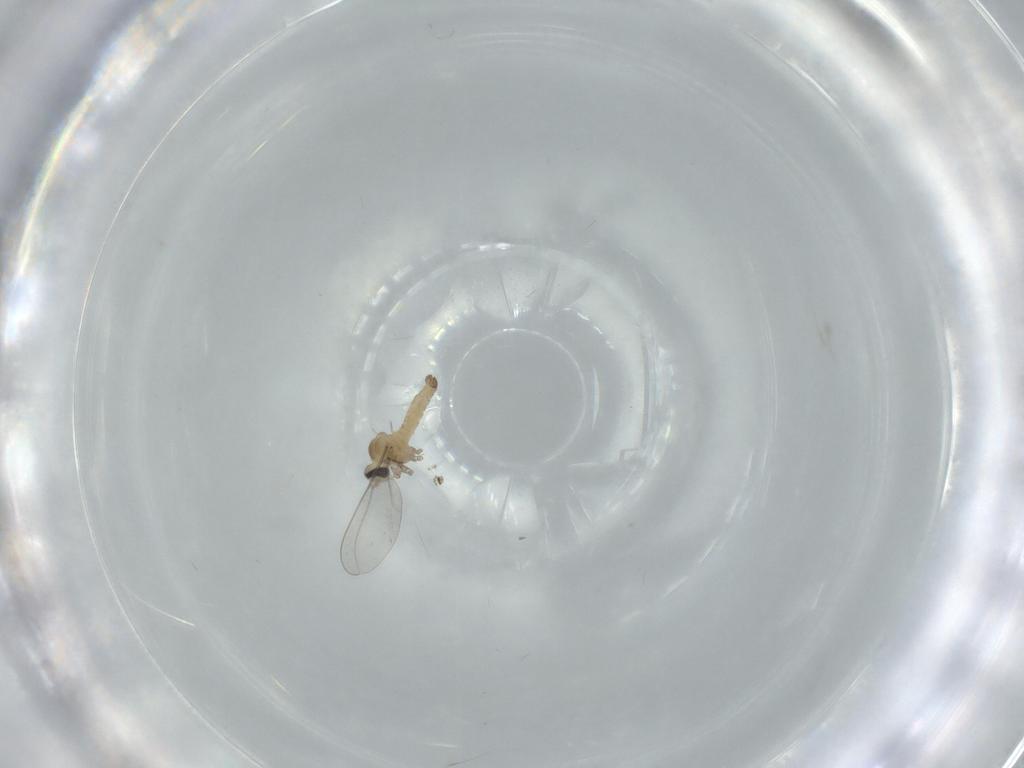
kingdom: Animalia
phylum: Arthropoda
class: Insecta
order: Diptera
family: Cecidomyiidae
